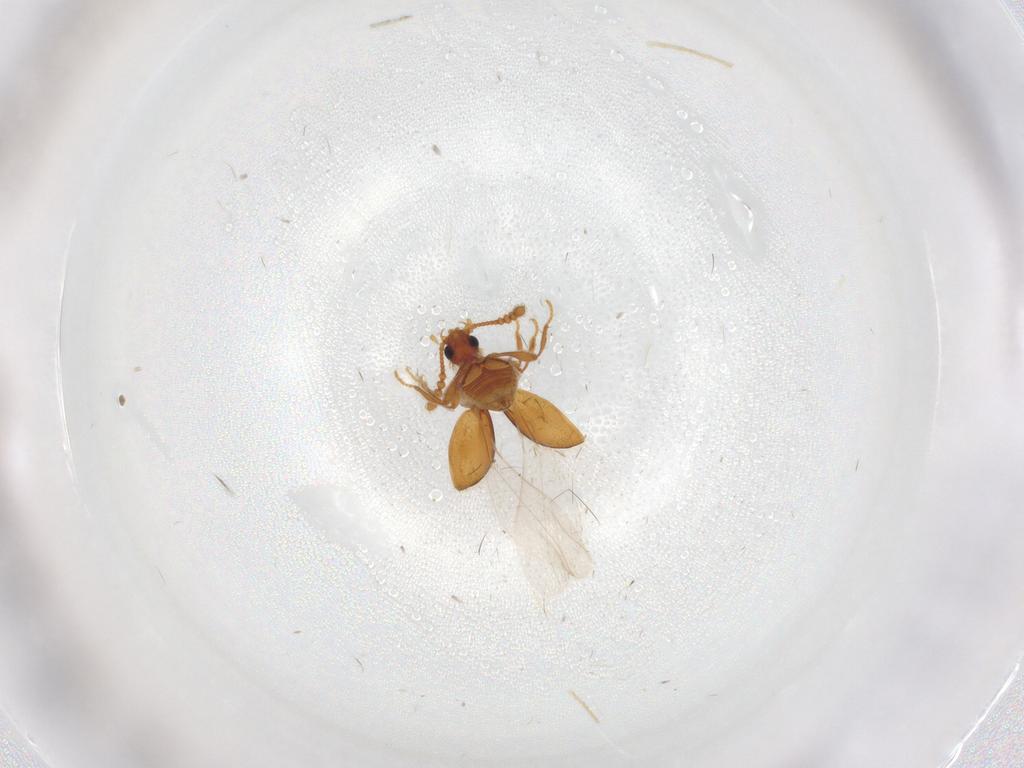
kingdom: Animalia
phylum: Arthropoda
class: Insecta
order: Coleoptera
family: Staphylinidae
